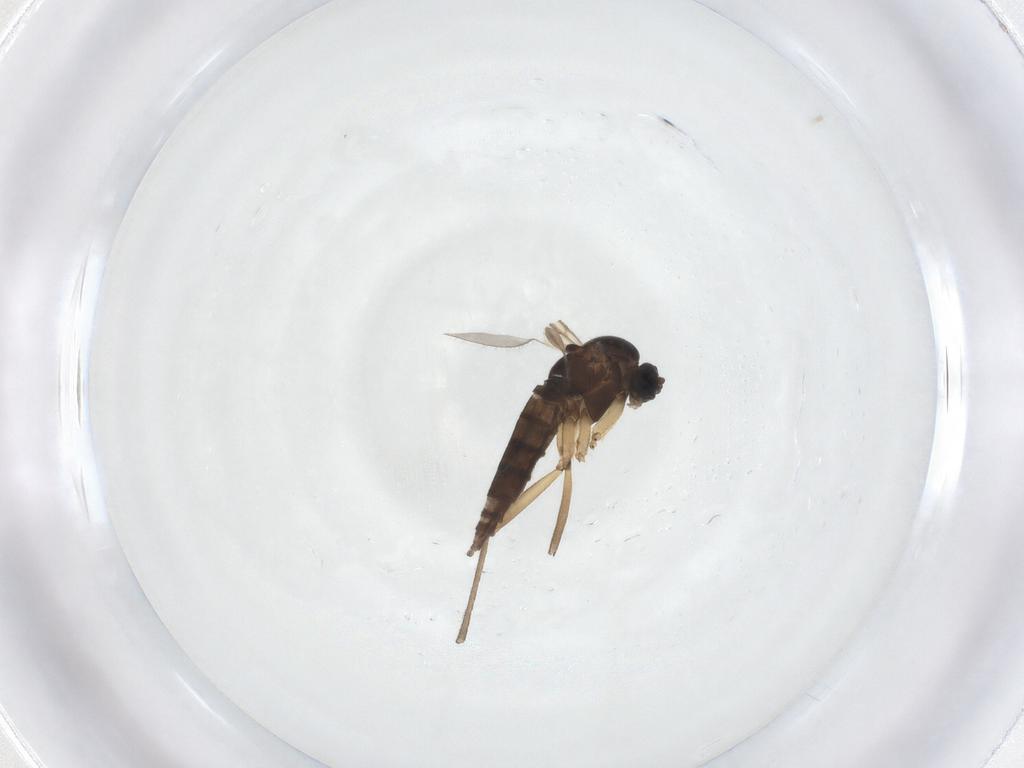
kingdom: Animalia
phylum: Arthropoda
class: Insecta
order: Diptera
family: Sciaridae
